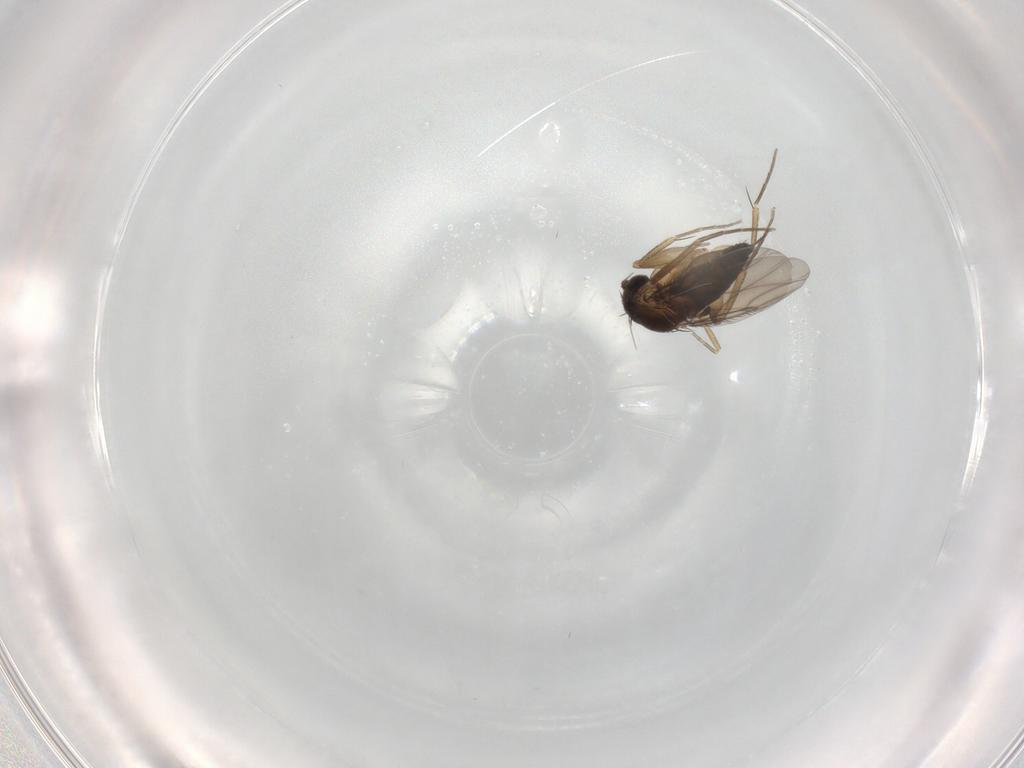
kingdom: Animalia
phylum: Arthropoda
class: Insecta
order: Diptera
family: Phoridae
